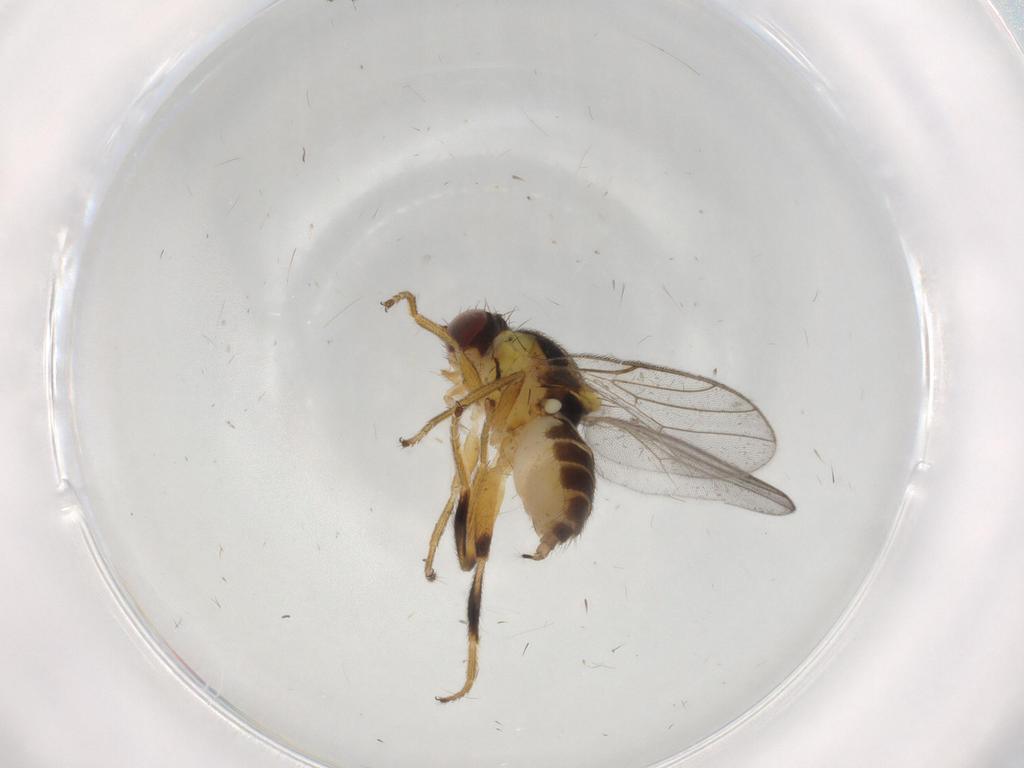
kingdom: Animalia
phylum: Arthropoda
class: Insecta
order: Diptera
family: Chloropidae
